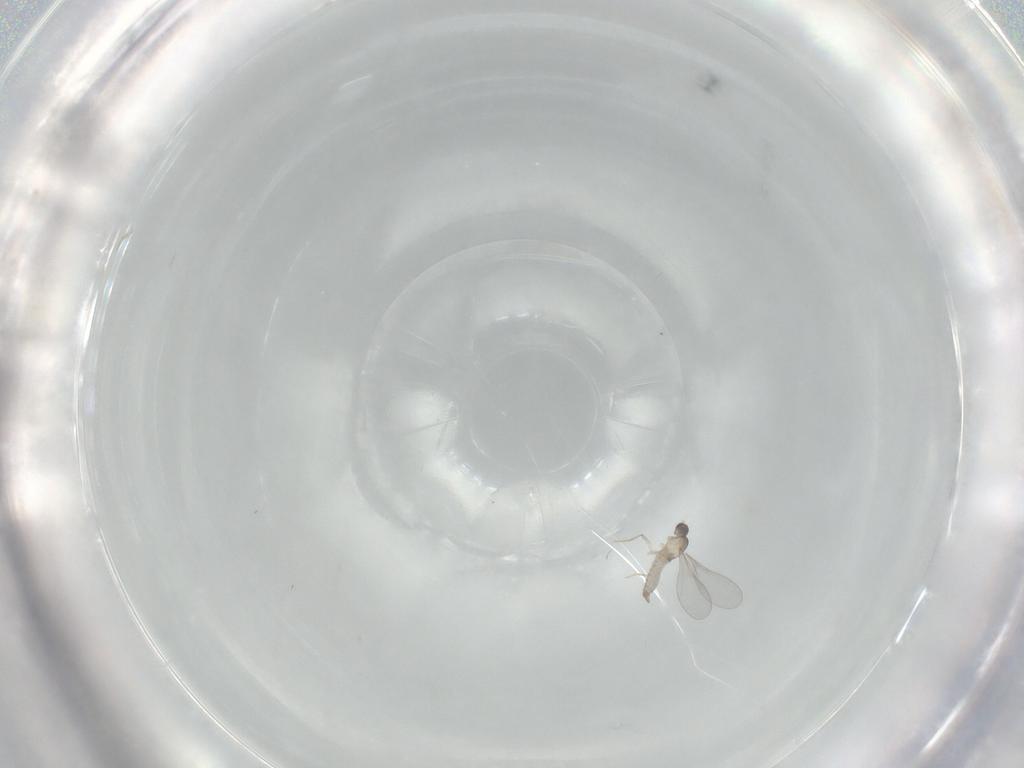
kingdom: Animalia
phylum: Arthropoda
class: Insecta
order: Diptera
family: Cecidomyiidae
